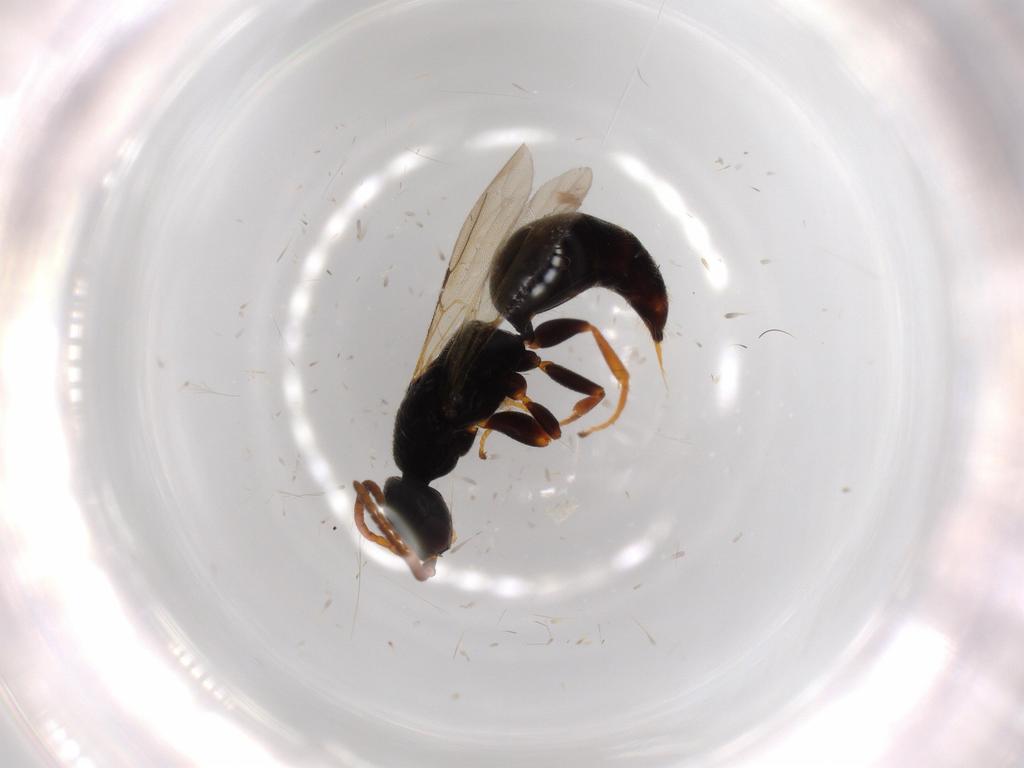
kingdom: Animalia
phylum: Arthropoda
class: Insecta
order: Hymenoptera
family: Bethylidae
